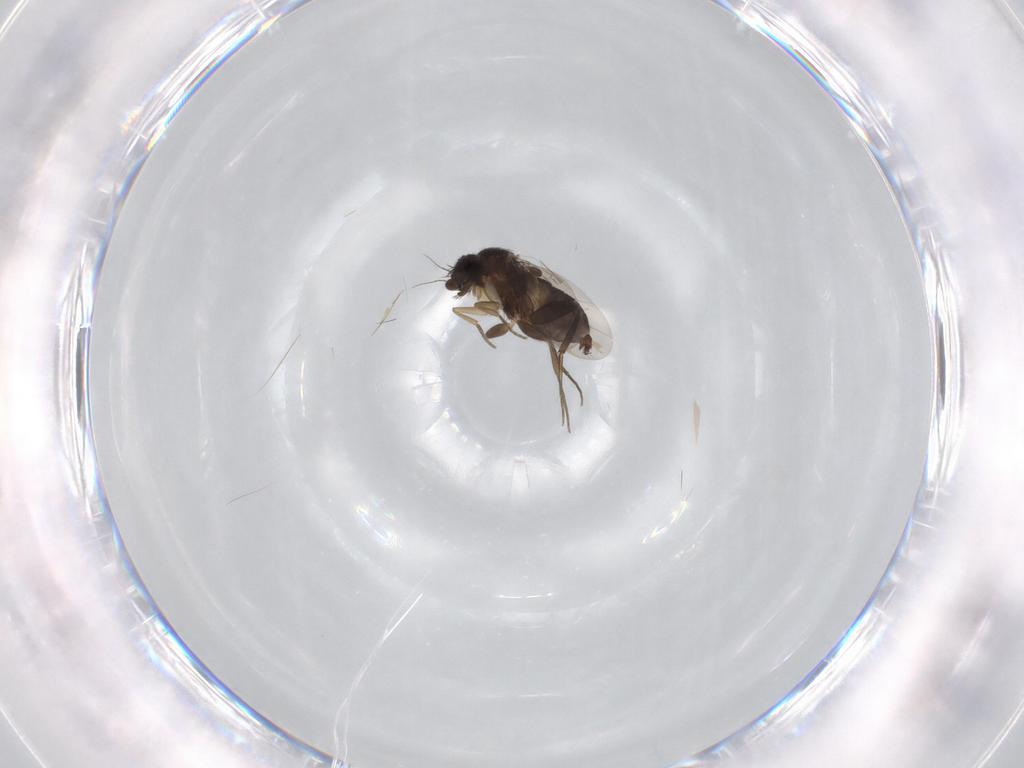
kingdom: Animalia
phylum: Arthropoda
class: Insecta
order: Diptera
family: Phoridae
